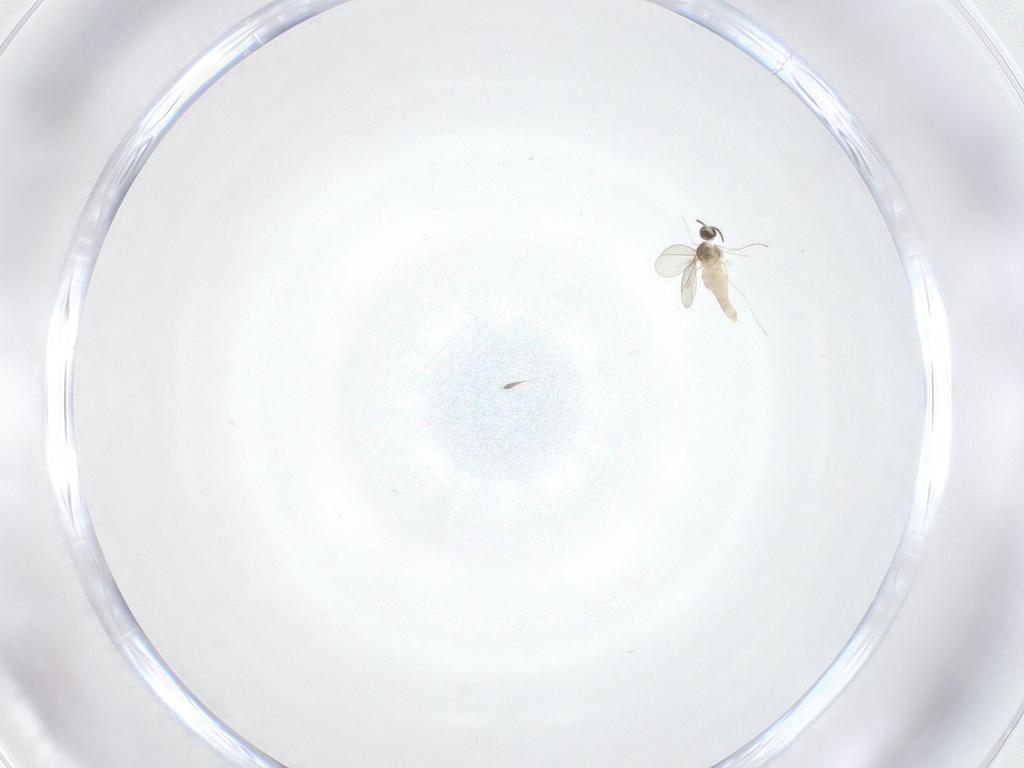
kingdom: Animalia
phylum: Arthropoda
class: Insecta
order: Diptera
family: Cecidomyiidae
